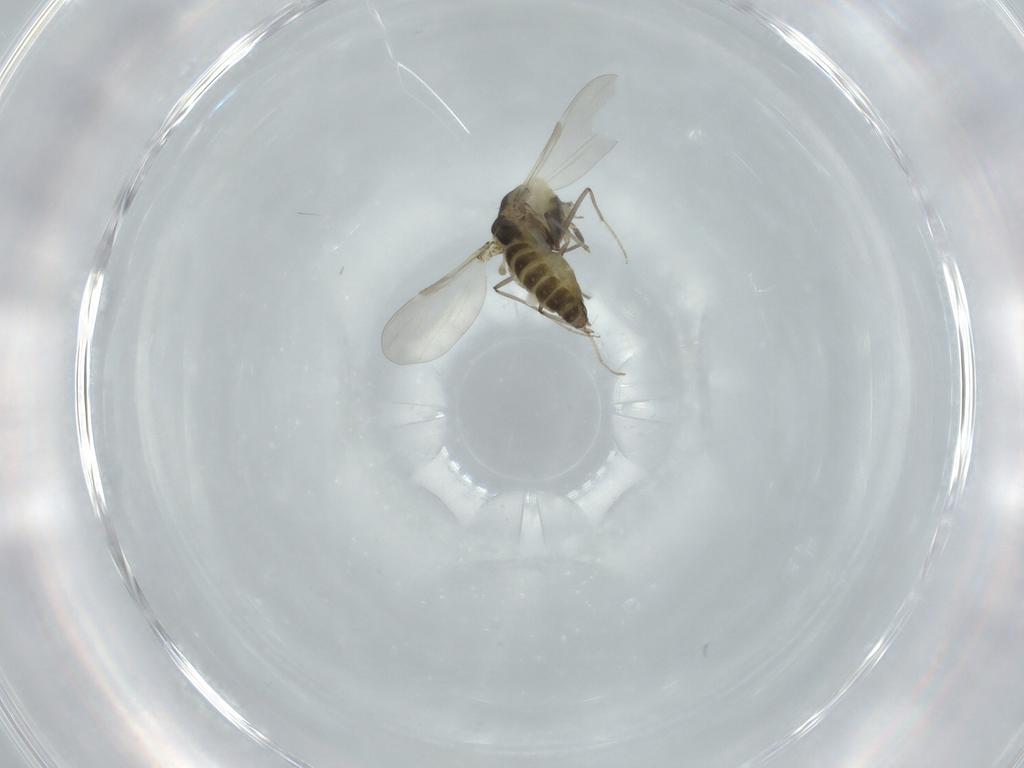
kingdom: Animalia
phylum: Arthropoda
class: Insecta
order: Diptera
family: Chironomidae
